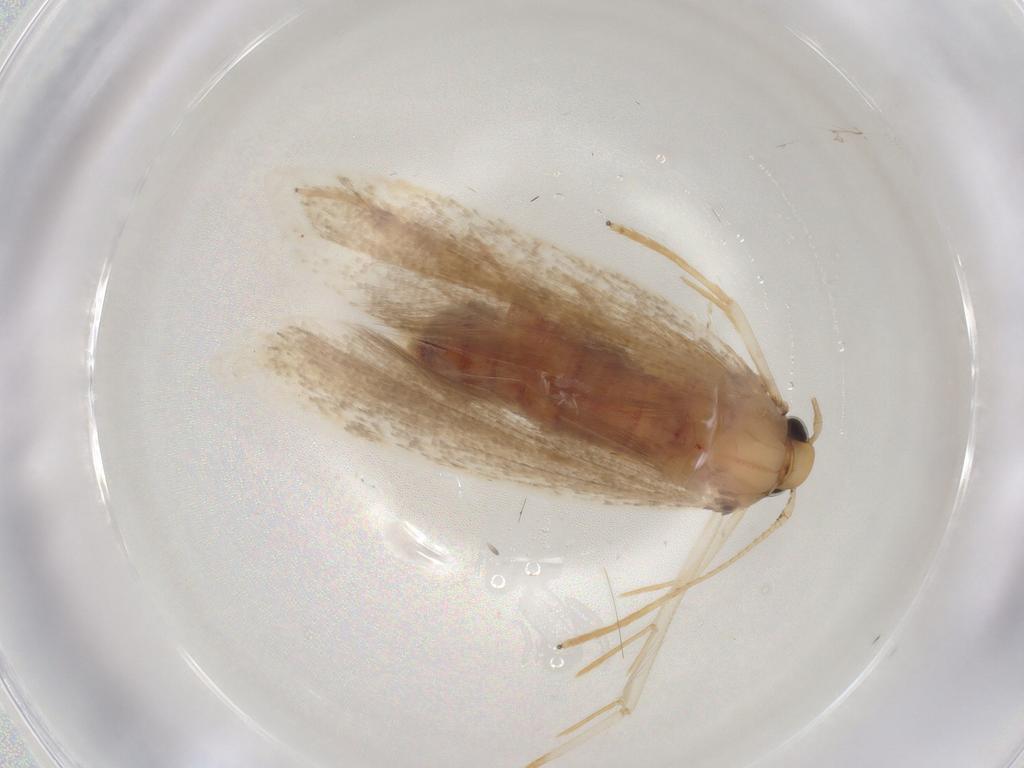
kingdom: Animalia
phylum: Arthropoda
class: Insecta
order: Lepidoptera
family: Lecithoceridae
